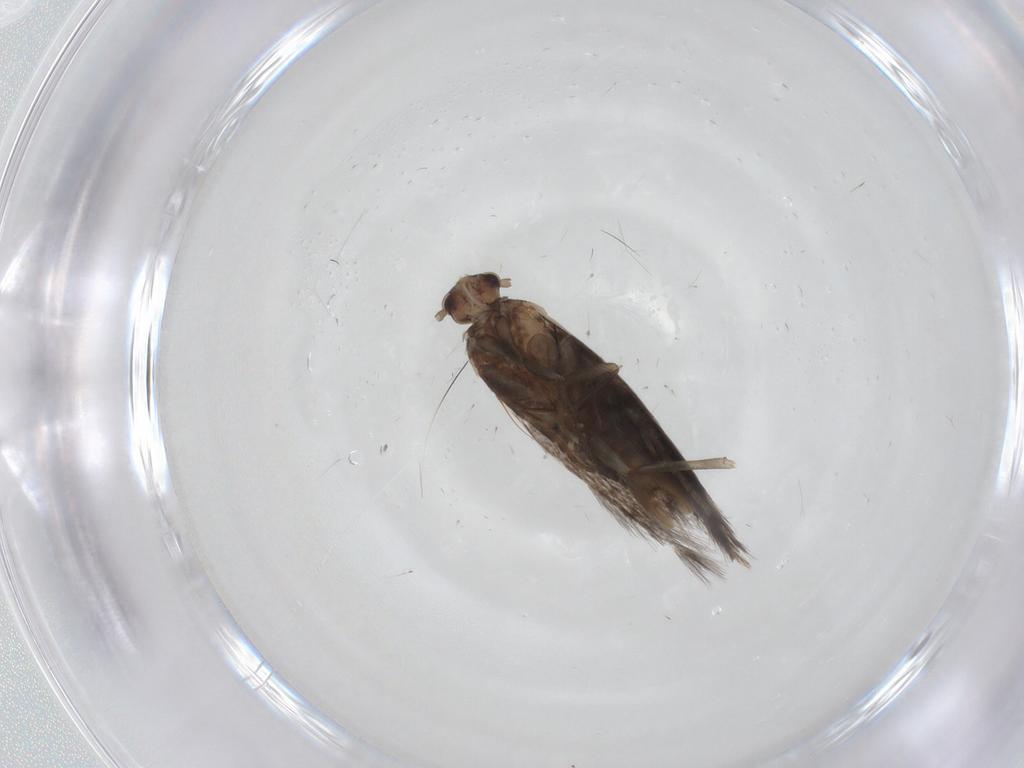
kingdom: Animalia
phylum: Arthropoda
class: Insecta
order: Lepidoptera
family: Elachistidae
